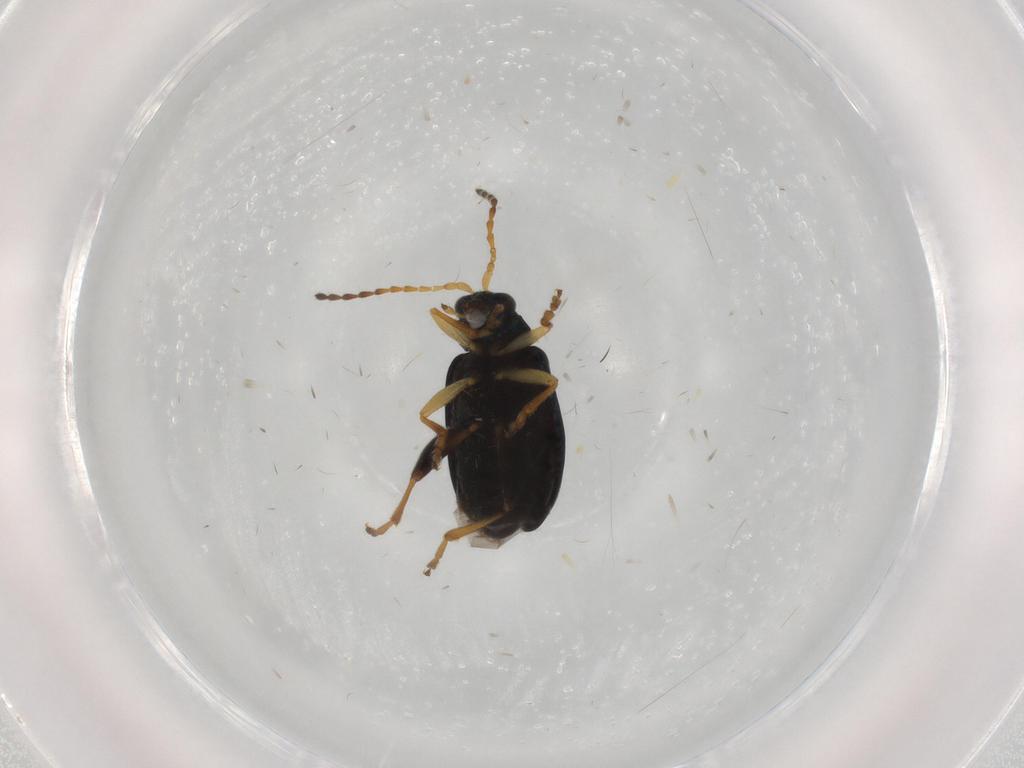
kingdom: Animalia
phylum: Arthropoda
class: Insecta
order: Coleoptera
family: Chrysomelidae
